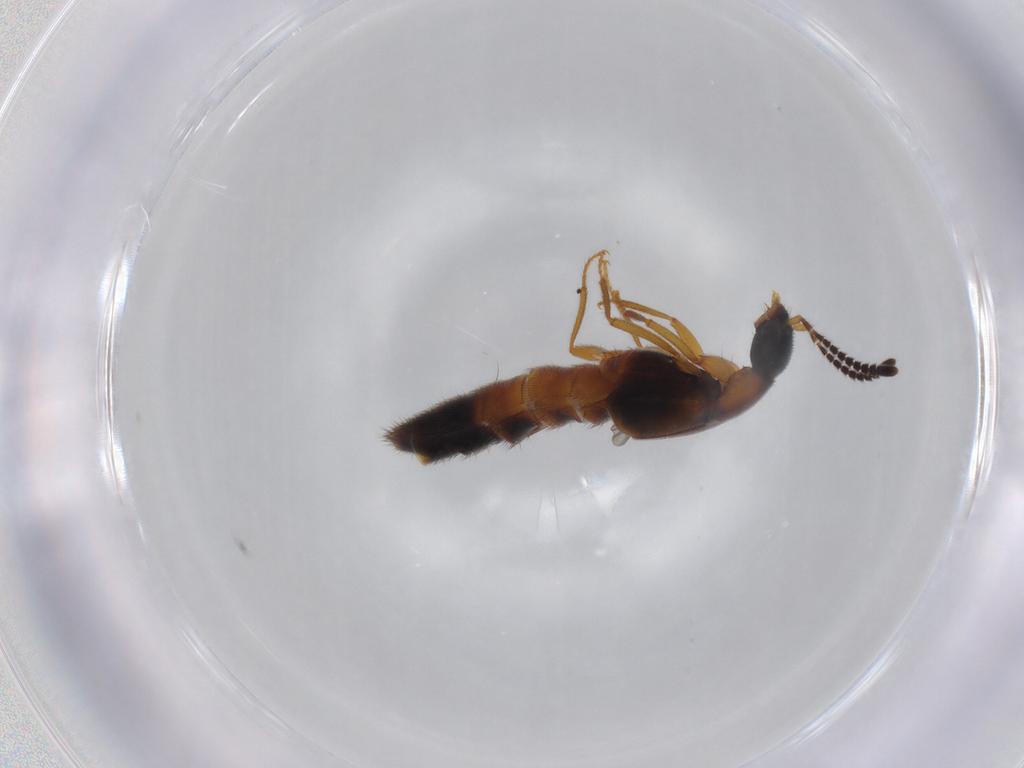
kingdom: Animalia
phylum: Arthropoda
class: Insecta
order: Coleoptera
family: Staphylinidae
